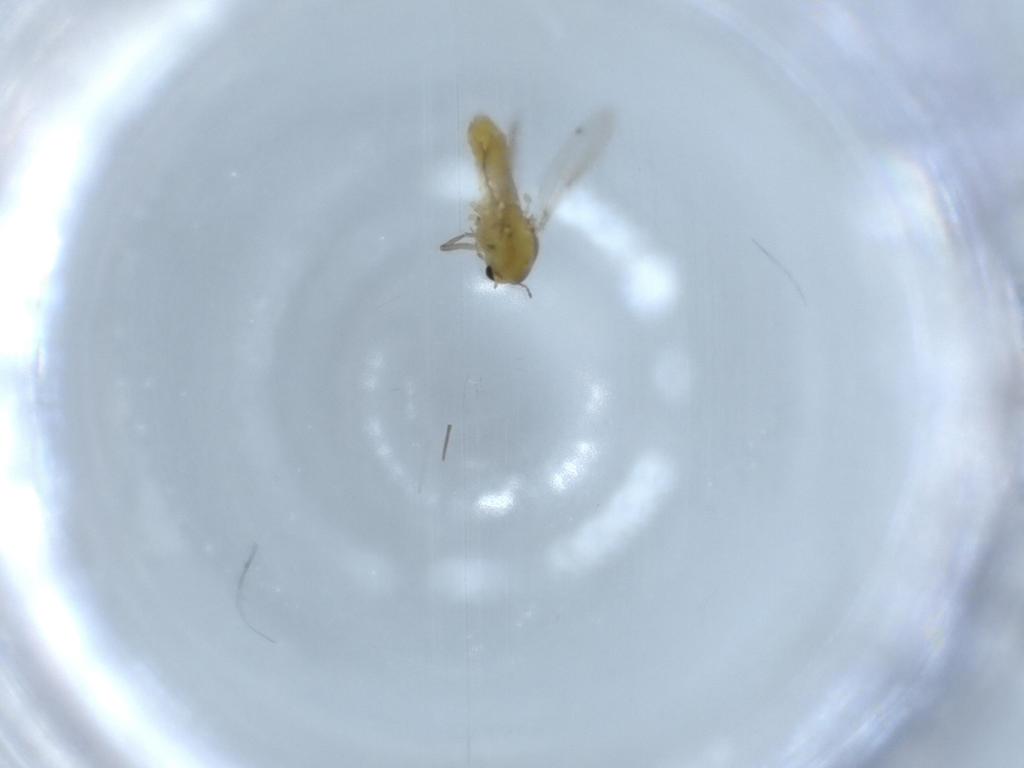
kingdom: Animalia
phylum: Arthropoda
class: Insecta
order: Diptera
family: Chironomidae
